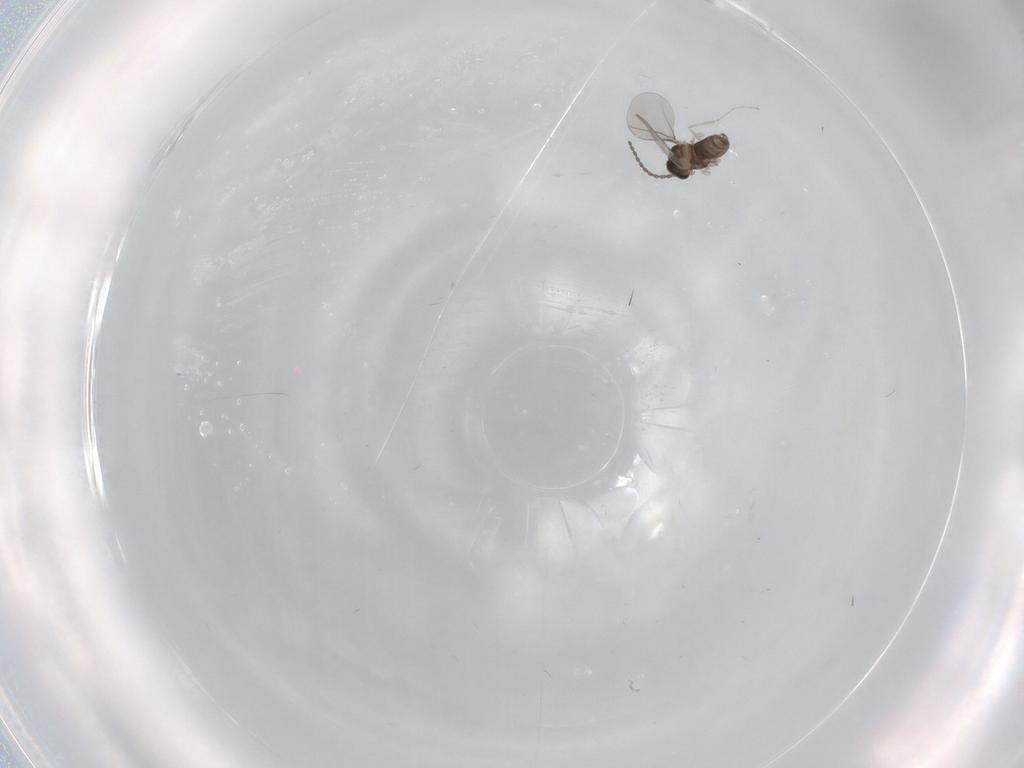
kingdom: Animalia
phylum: Arthropoda
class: Insecta
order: Diptera
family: Cecidomyiidae
